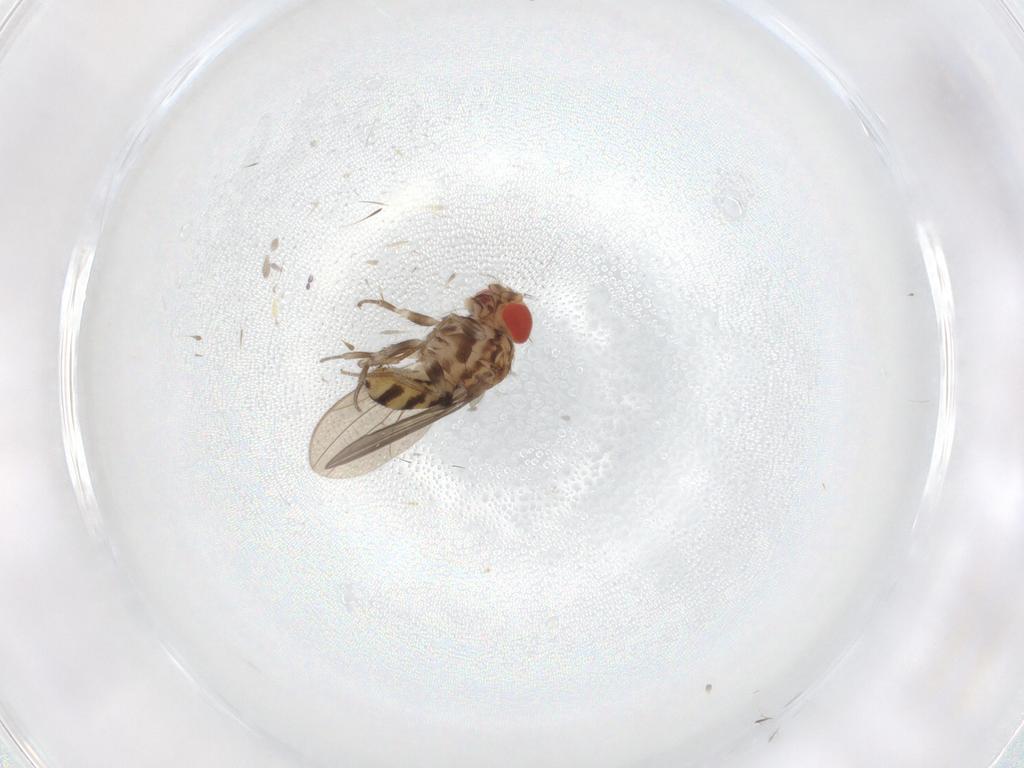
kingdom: Animalia
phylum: Arthropoda
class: Insecta
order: Diptera
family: Drosophilidae
